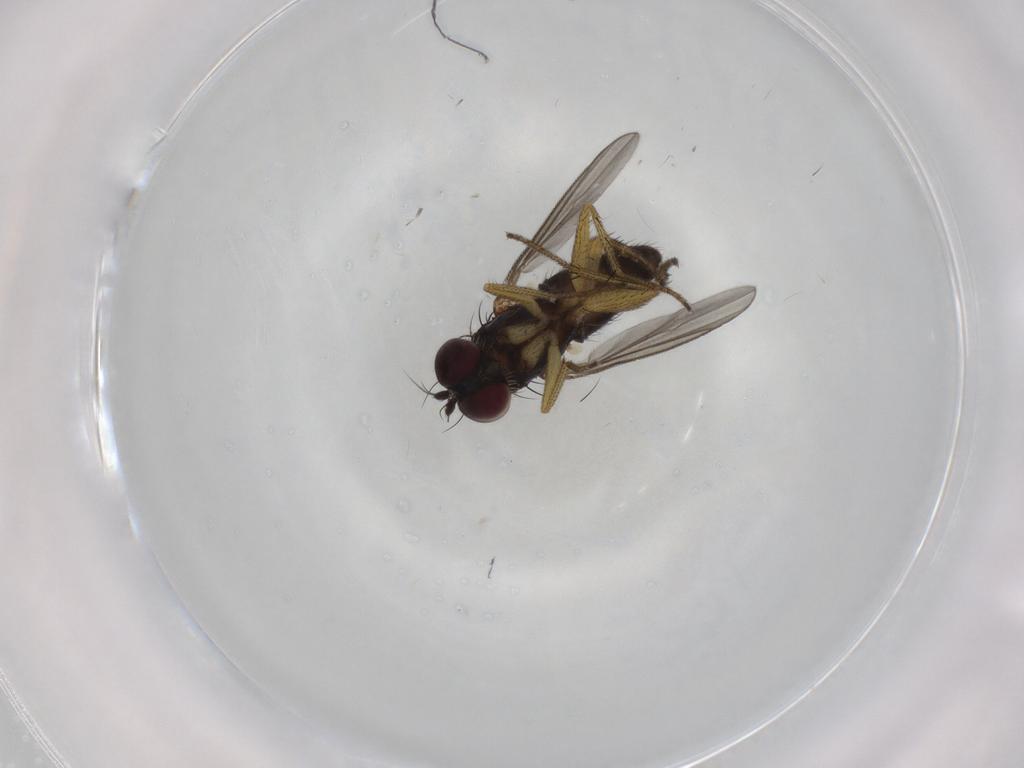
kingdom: Animalia
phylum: Arthropoda
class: Insecta
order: Diptera
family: Dolichopodidae
